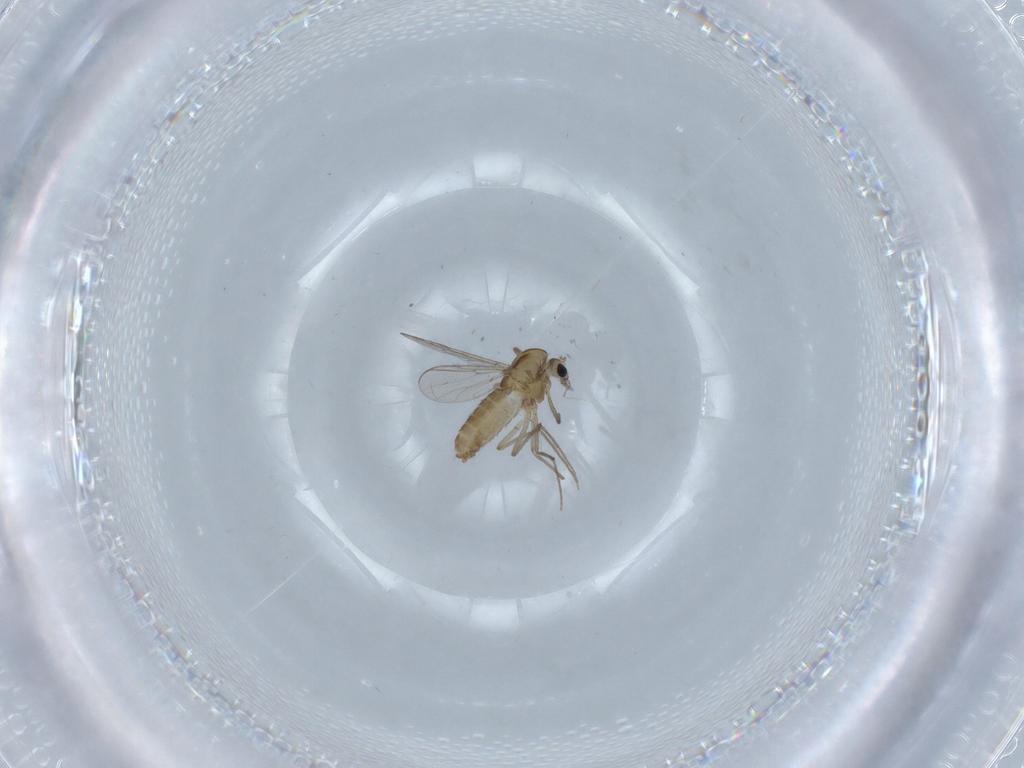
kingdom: Animalia
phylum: Arthropoda
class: Insecta
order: Diptera
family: Chironomidae
